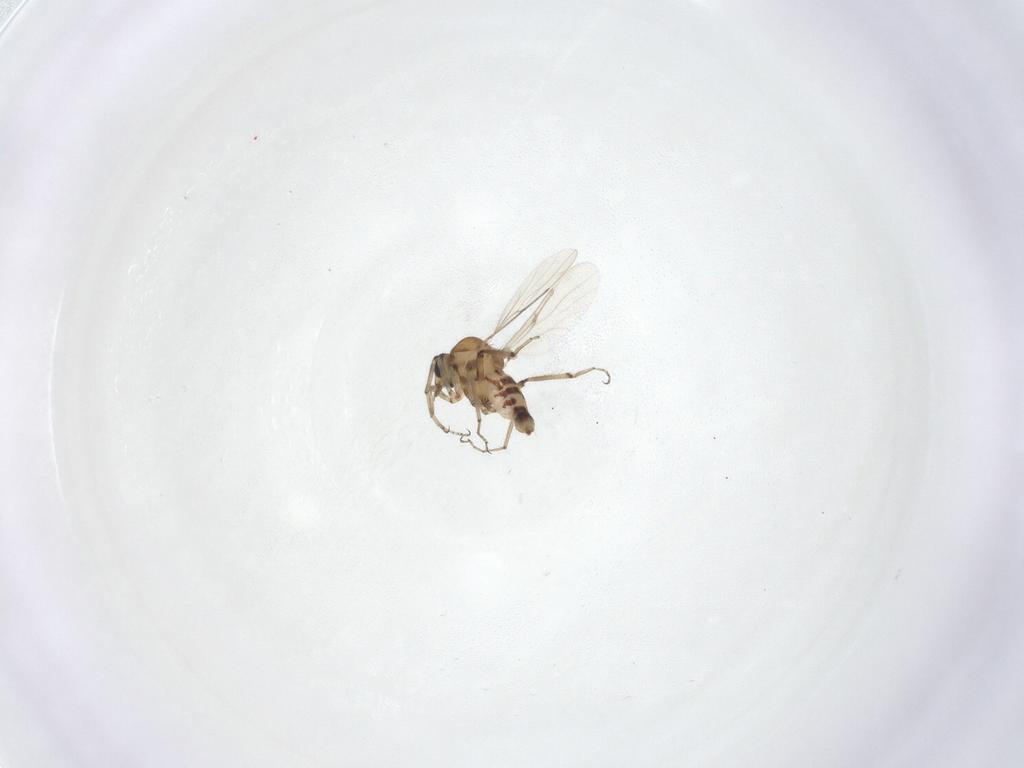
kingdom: Animalia
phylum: Arthropoda
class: Insecta
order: Diptera
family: Ceratopogonidae
